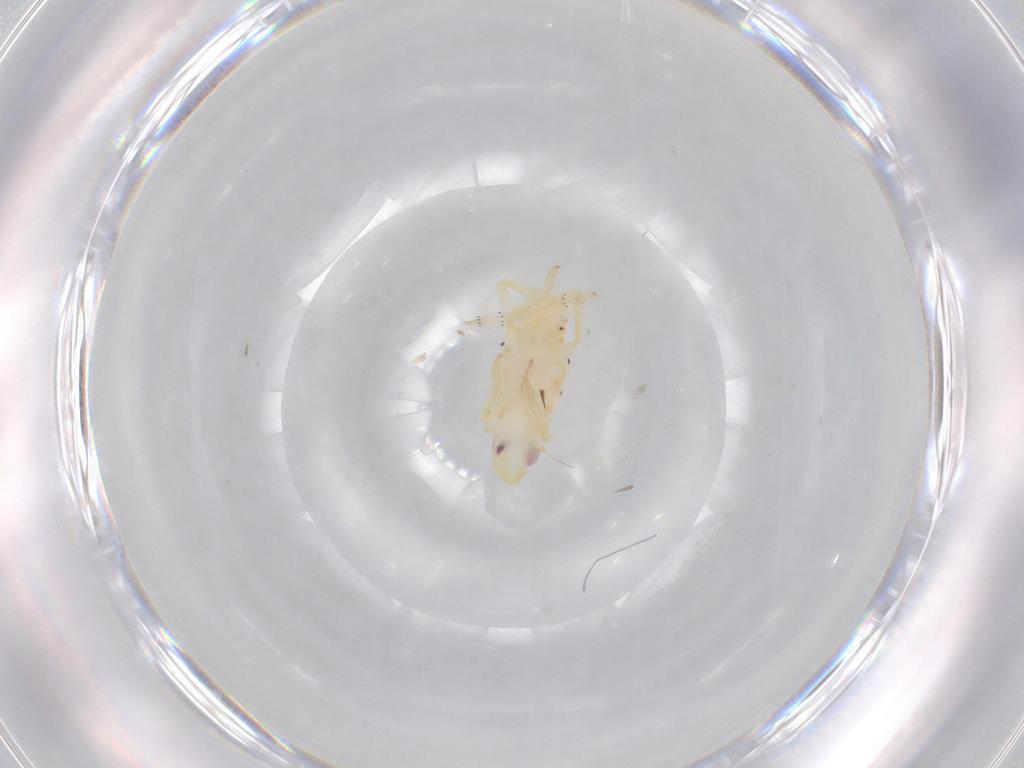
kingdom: Animalia
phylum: Arthropoda
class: Insecta
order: Hemiptera
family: Tropiduchidae
